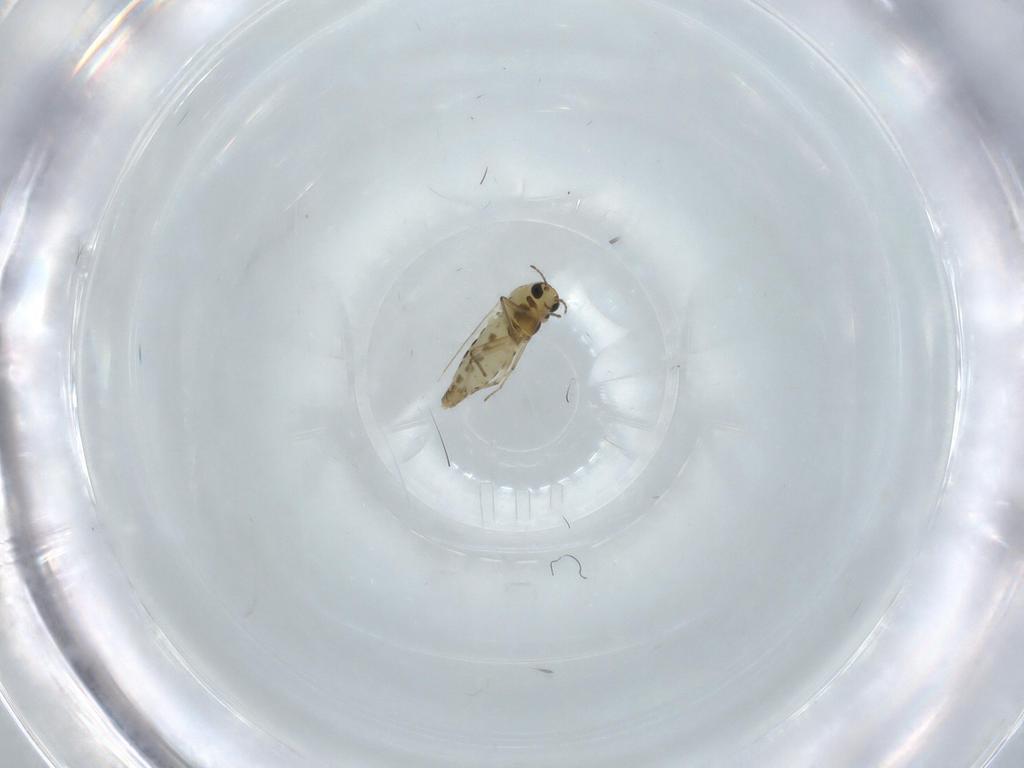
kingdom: Animalia
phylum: Arthropoda
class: Insecta
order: Diptera
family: Chironomidae
